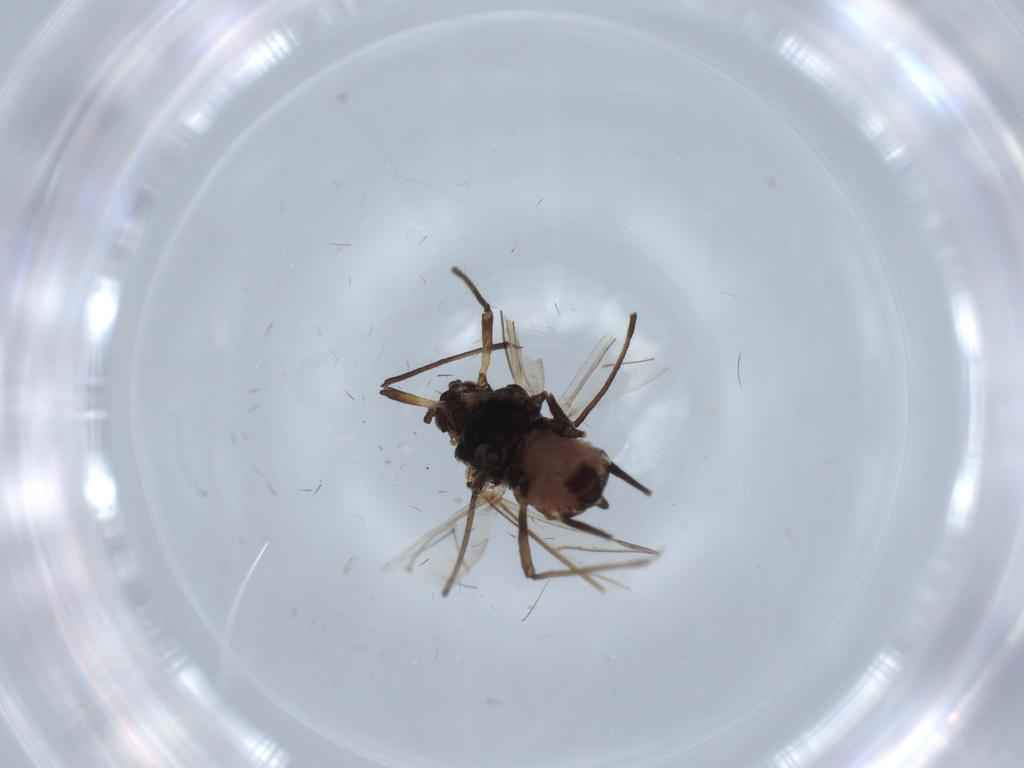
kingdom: Animalia
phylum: Arthropoda
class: Insecta
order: Hemiptera
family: Aphididae
